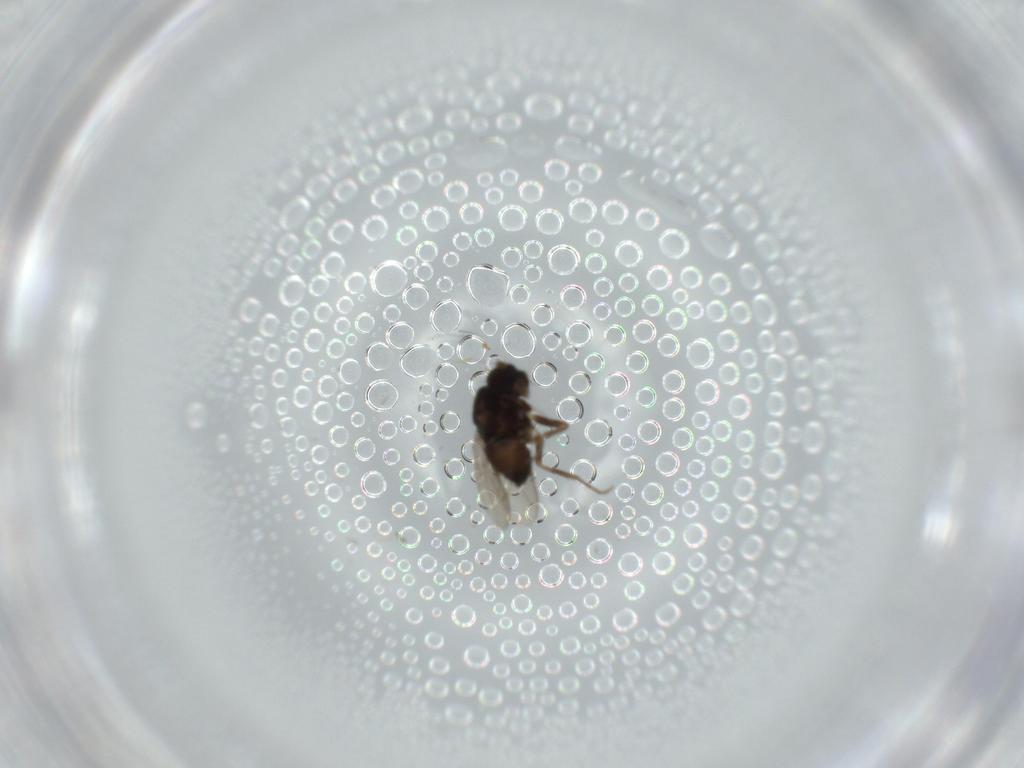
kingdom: Animalia
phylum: Arthropoda
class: Insecta
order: Diptera
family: Sphaeroceridae
